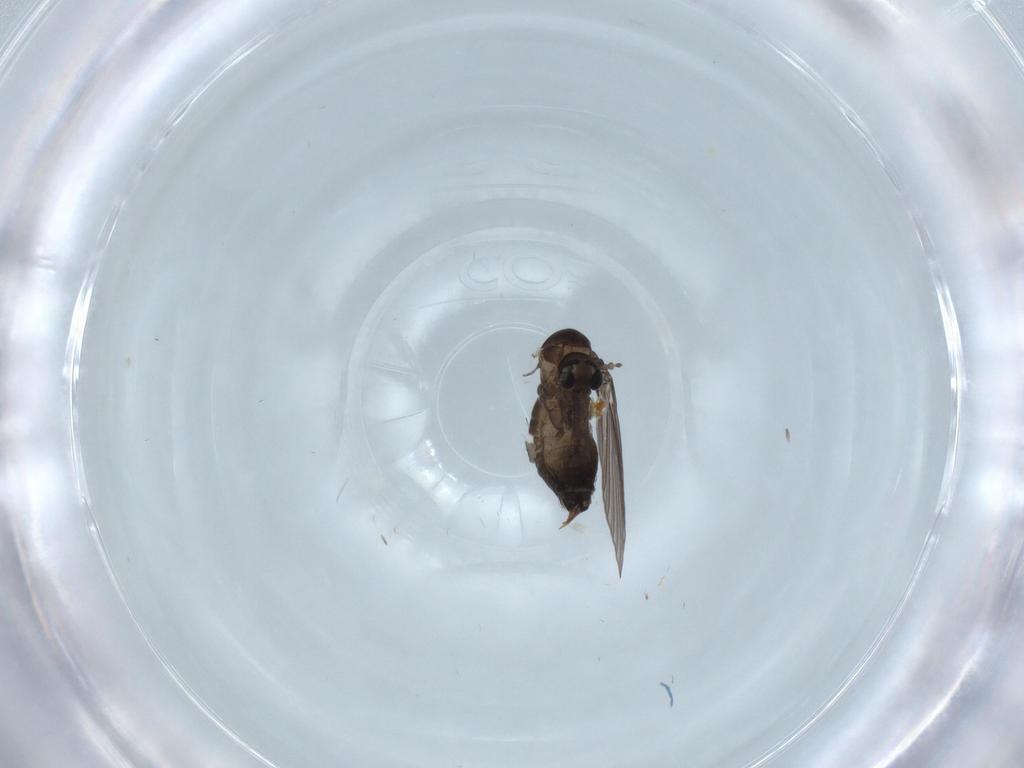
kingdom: Animalia
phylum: Arthropoda
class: Insecta
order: Diptera
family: Psychodidae
